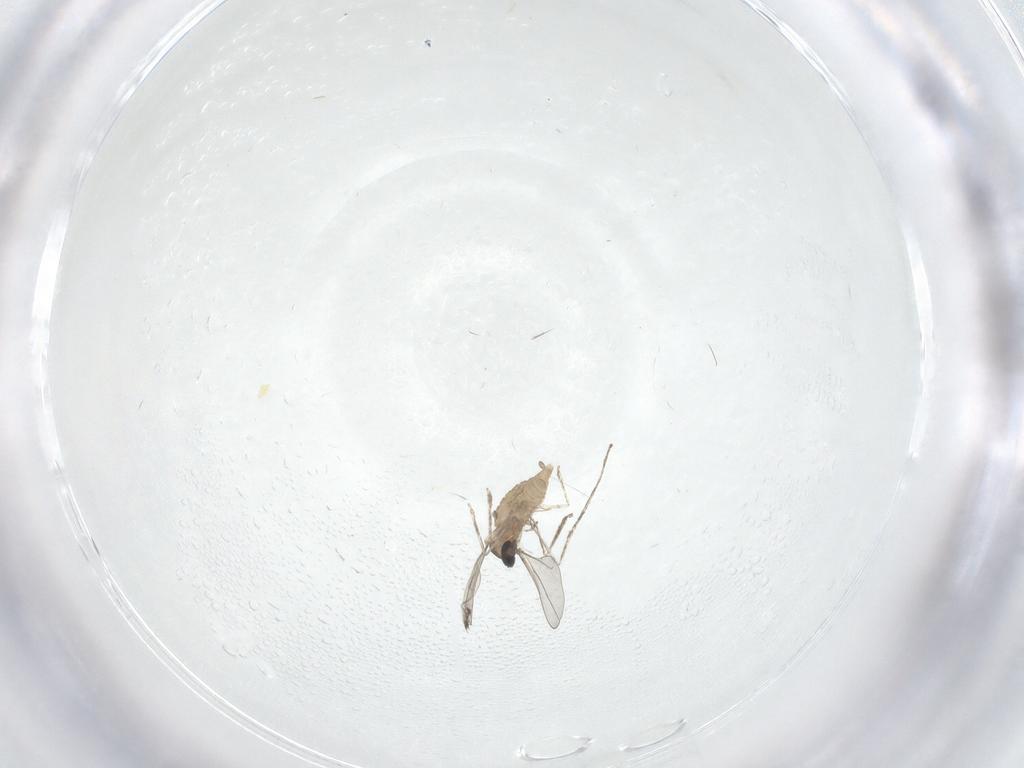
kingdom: Animalia
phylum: Arthropoda
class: Insecta
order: Diptera
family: Cecidomyiidae
